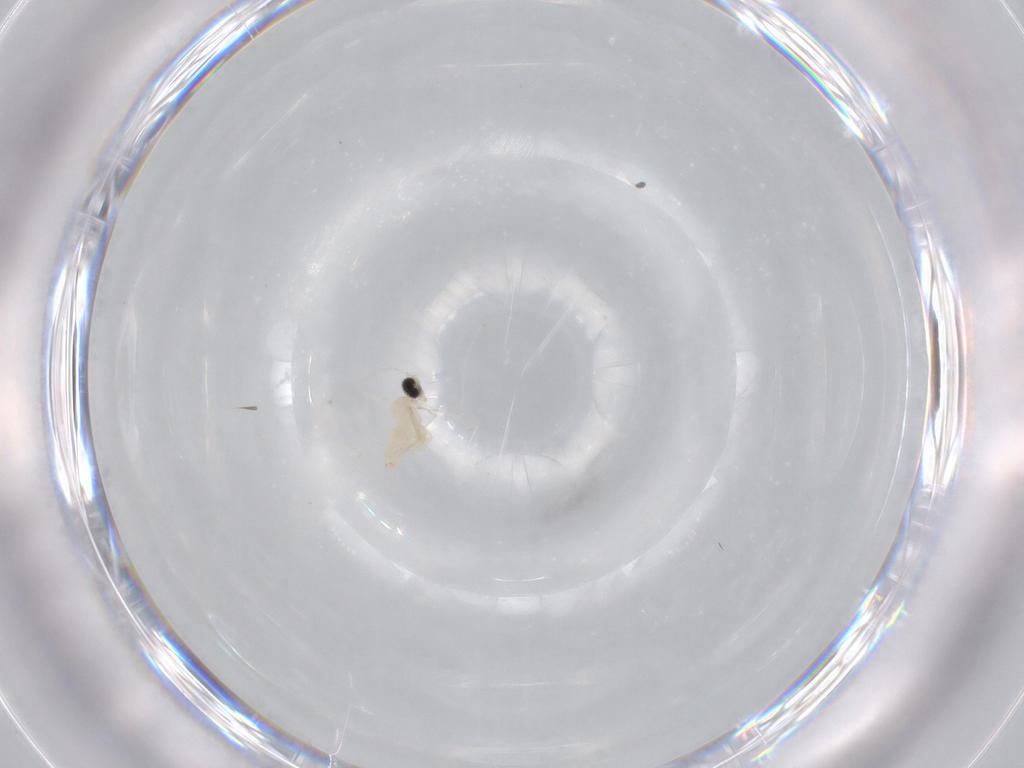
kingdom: Animalia
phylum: Arthropoda
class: Insecta
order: Diptera
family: Cecidomyiidae
